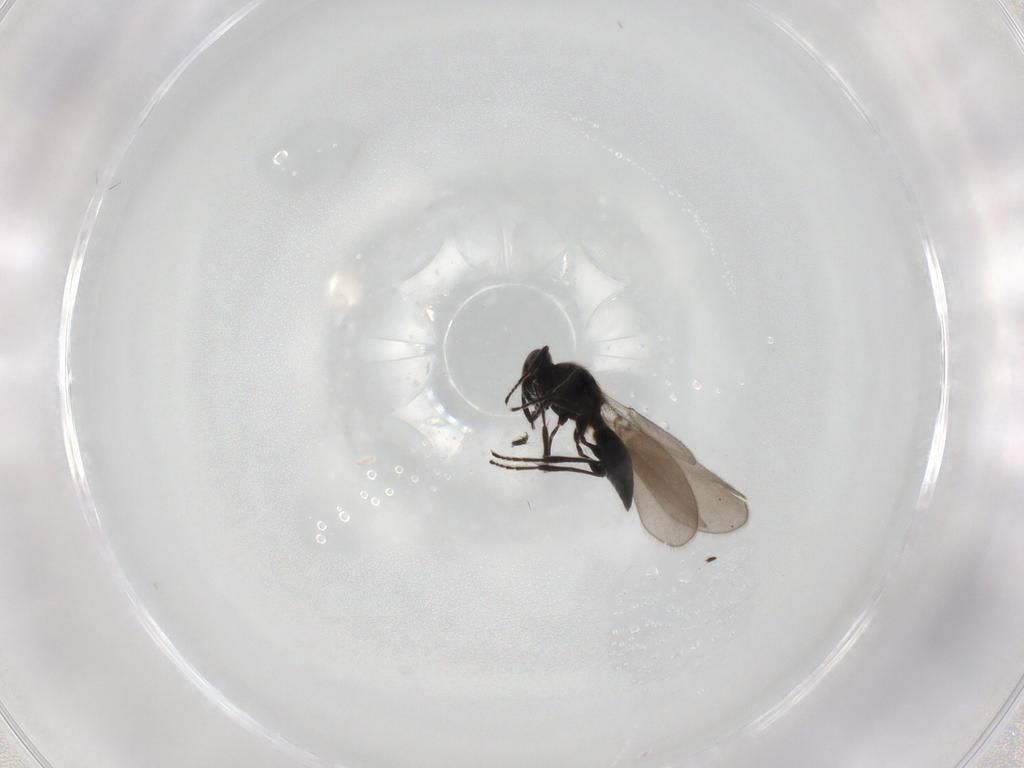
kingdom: Animalia
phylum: Arthropoda
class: Insecta
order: Hymenoptera
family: Platygastridae
